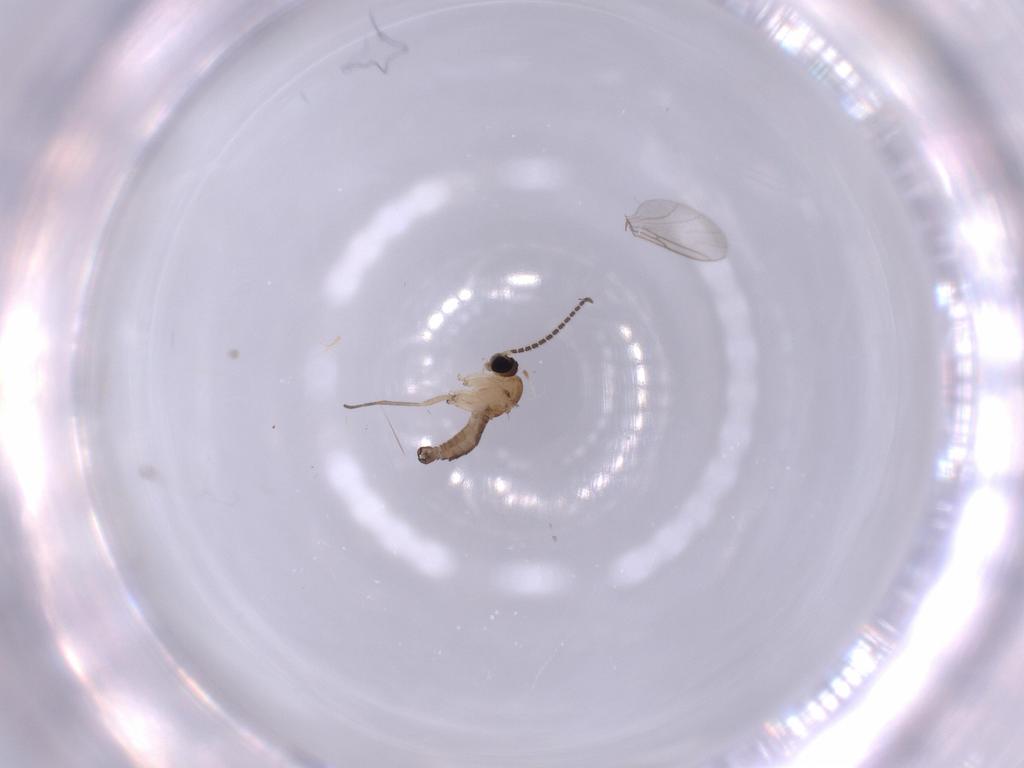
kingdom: Animalia
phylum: Arthropoda
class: Insecta
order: Diptera
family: Sciaridae
